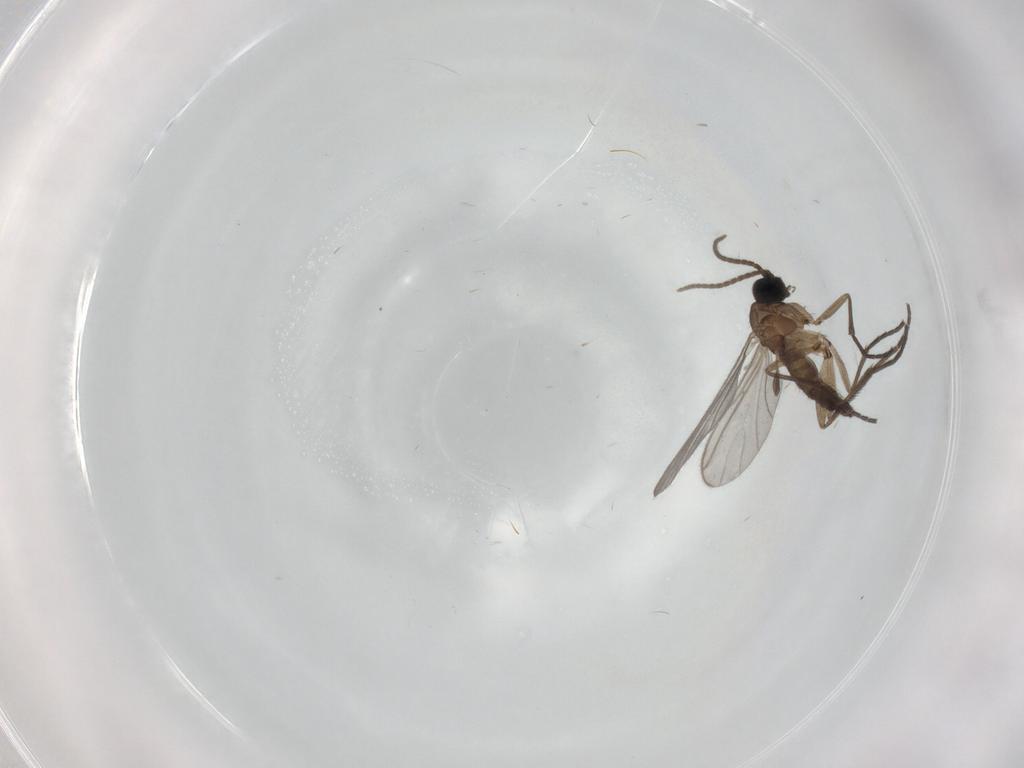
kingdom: Animalia
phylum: Arthropoda
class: Insecta
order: Diptera
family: Sciaridae
